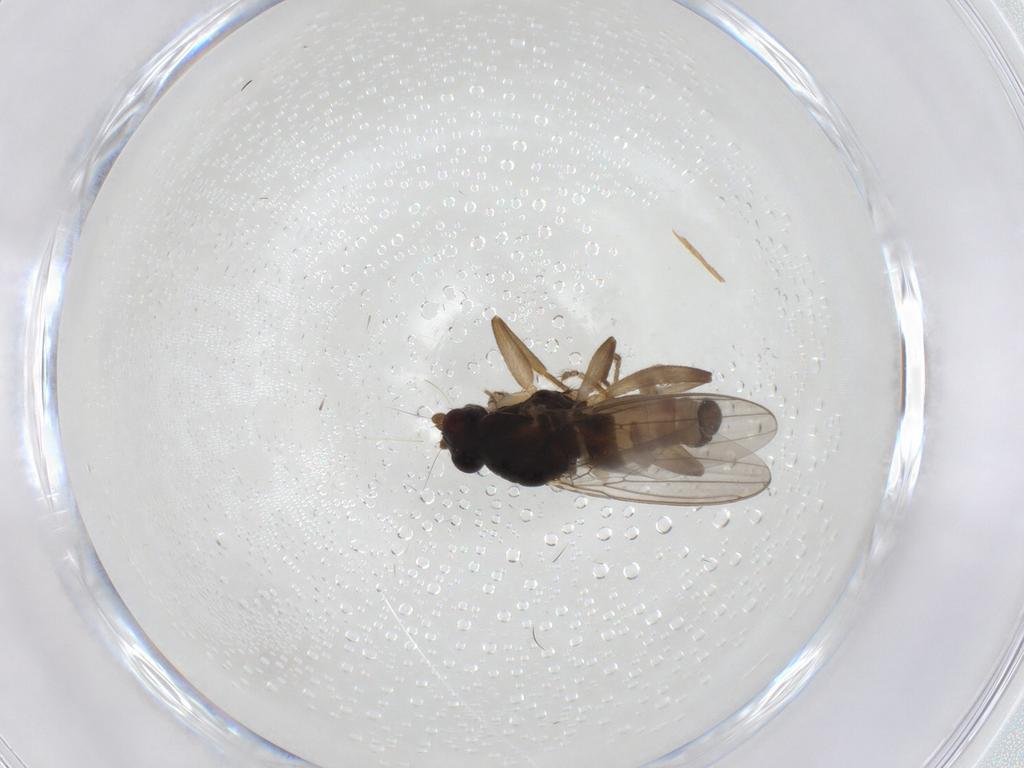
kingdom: Animalia
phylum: Arthropoda
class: Insecta
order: Diptera
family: Sphaeroceridae
